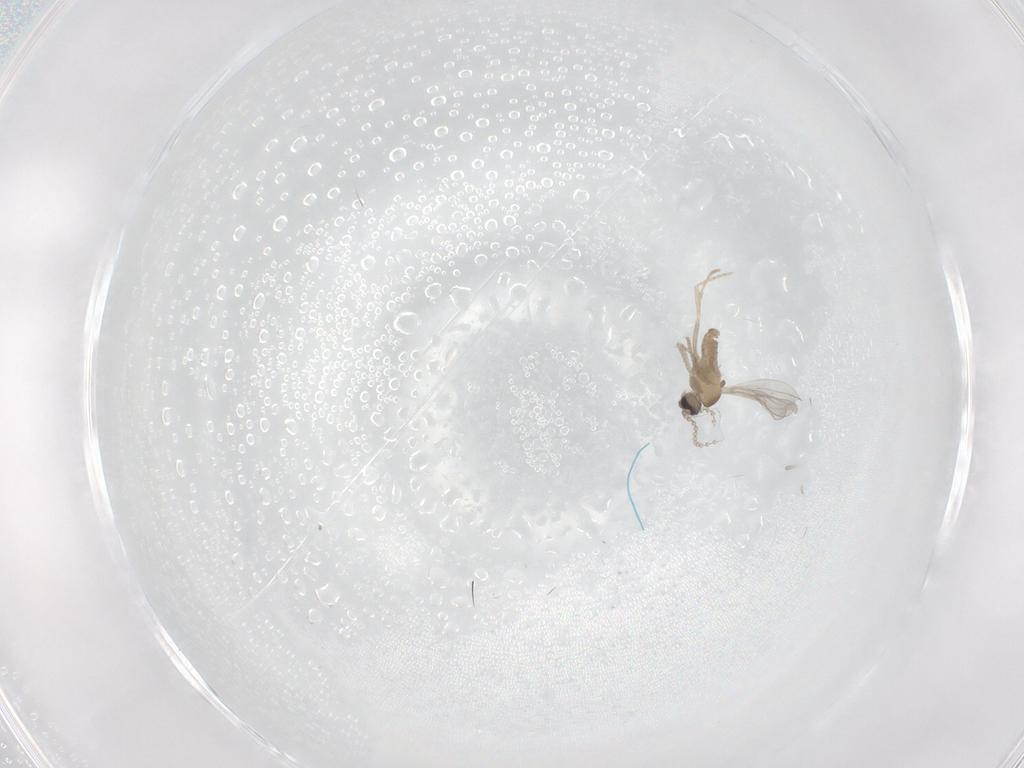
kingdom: Animalia
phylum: Arthropoda
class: Insecta
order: Diptera
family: Cecidomyiidae
